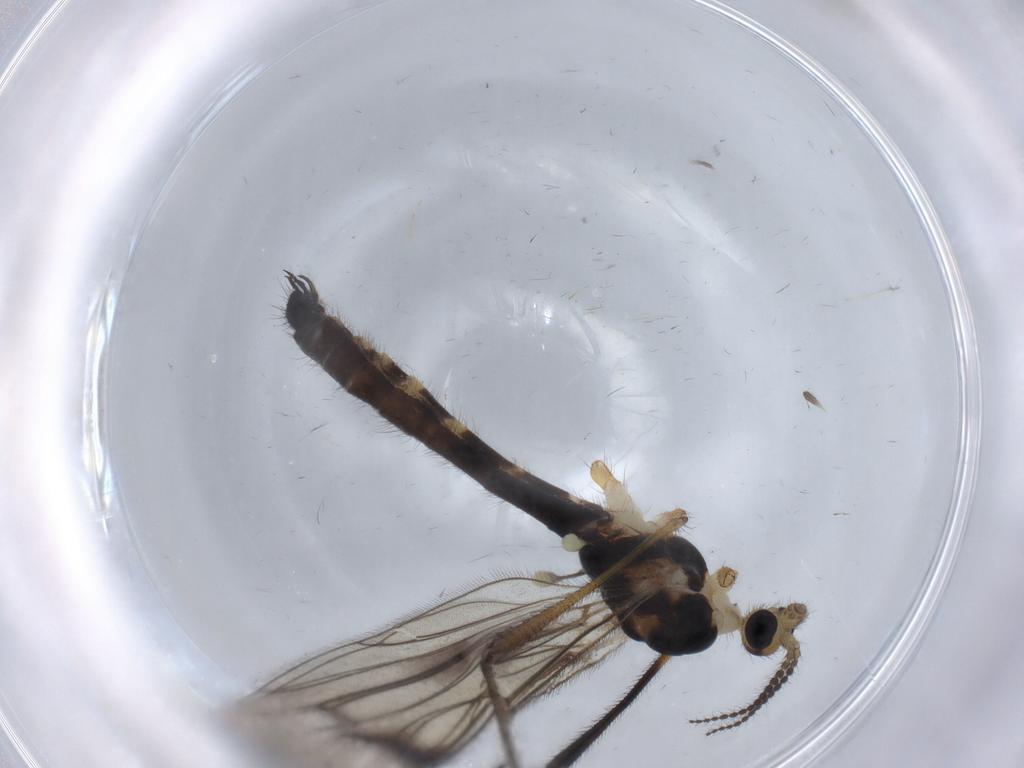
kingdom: Animalia
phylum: Arthropoda
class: Insecta
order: Diptera
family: Limoniidae
